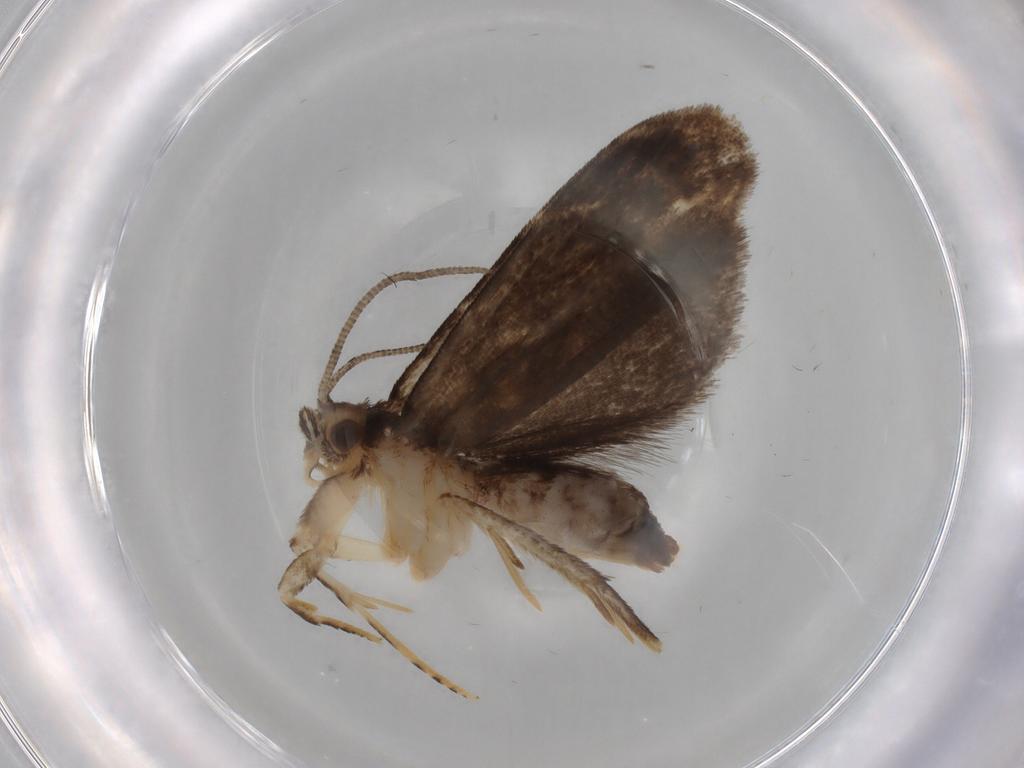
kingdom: Animalia
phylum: Arthropoda
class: Insecta
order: Lepidoptera
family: Dryadaulidae
